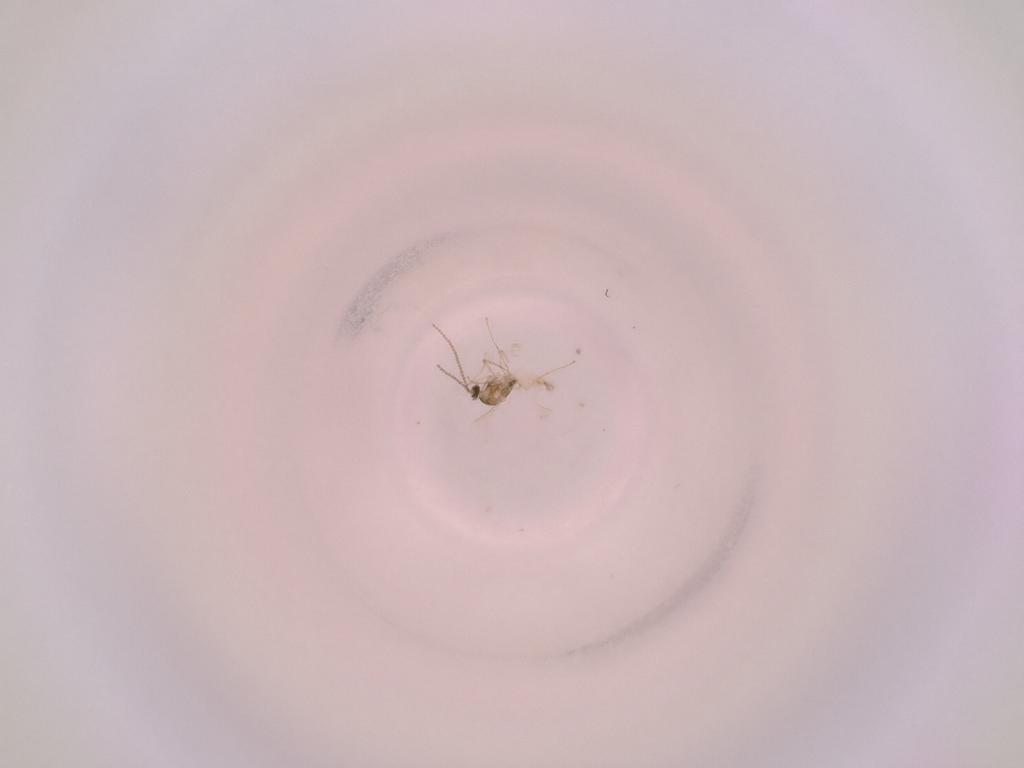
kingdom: Animalia
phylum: Arthropoda
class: Insecta
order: Diptera
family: Cecidomyiidae
